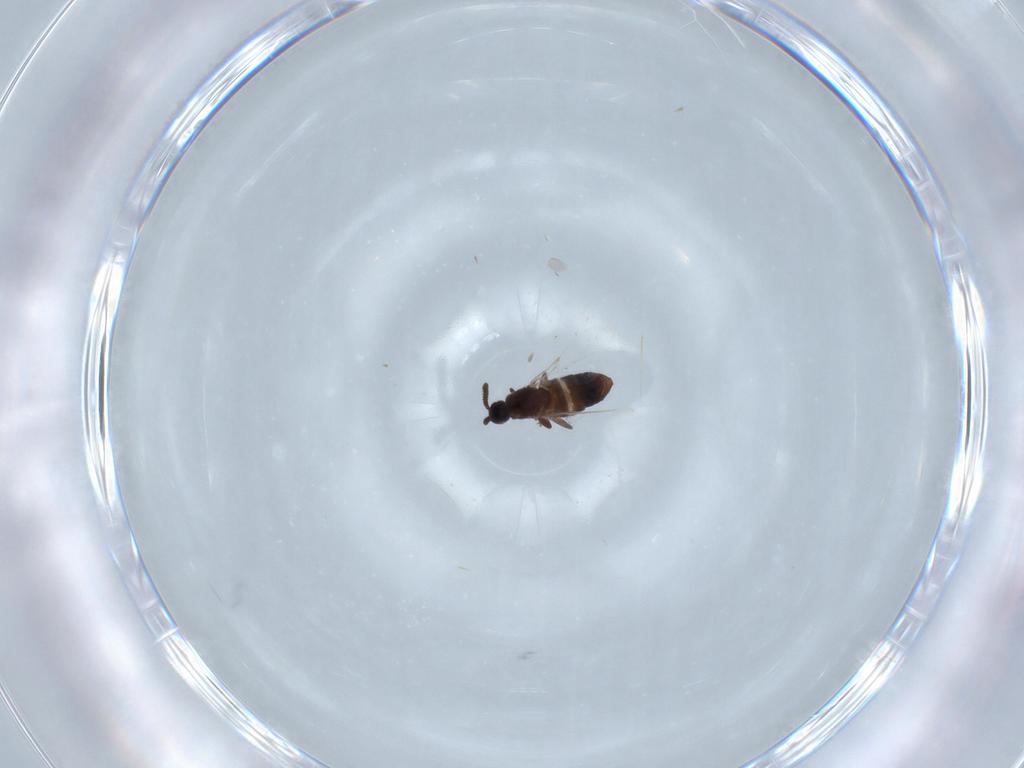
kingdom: Animalia
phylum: Arthropoda
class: Insecta
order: Diptera
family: Scatopsidae
